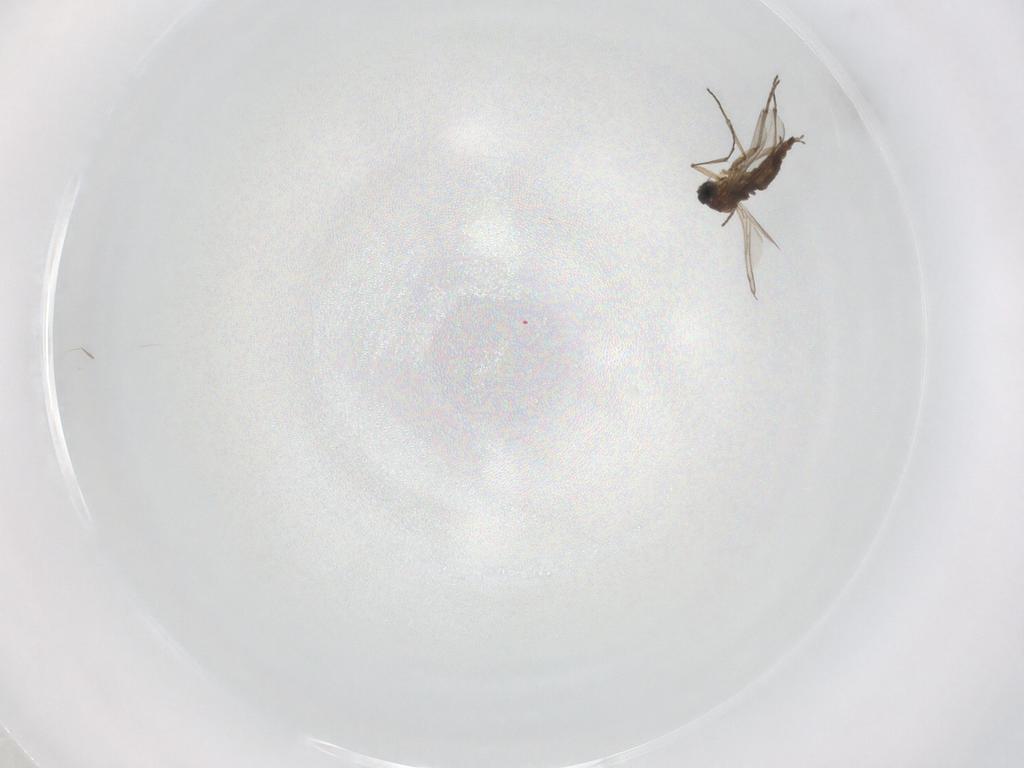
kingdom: Animalia
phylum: Arthropoda
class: Insecta
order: Diptera
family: Sciaridae
